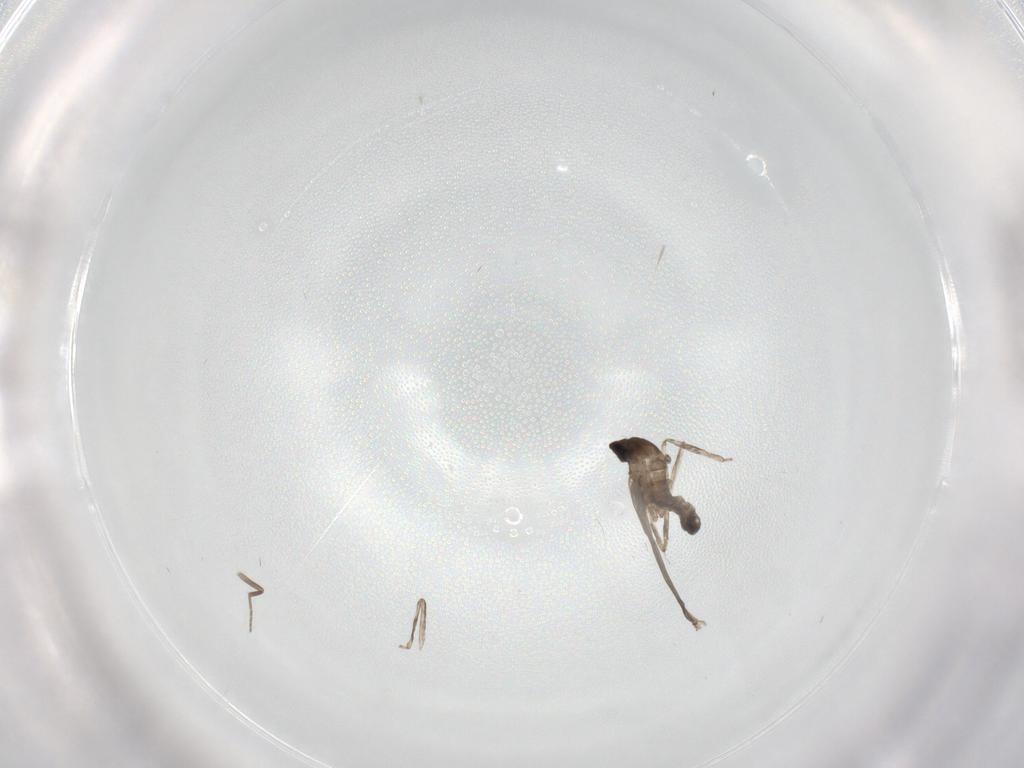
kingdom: Animalia
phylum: Arthropoda
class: Insecta
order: Diptera
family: Cecidomyiidae
